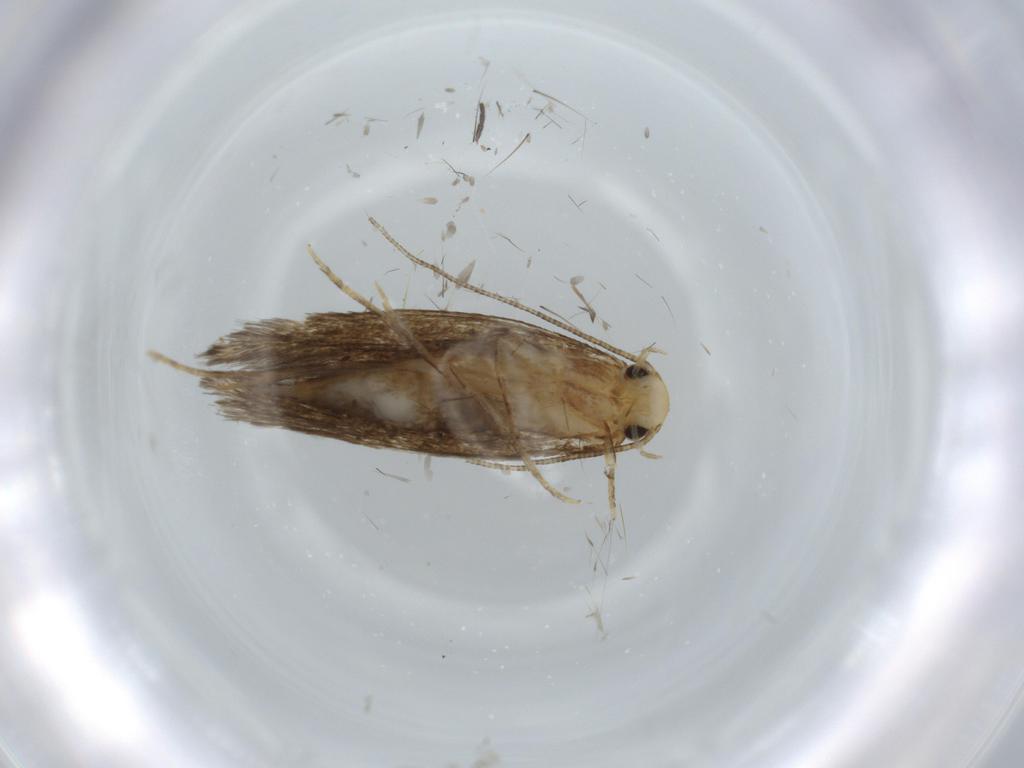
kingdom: Animalia
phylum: Arthropoda
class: Insecta
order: Lepidoptera
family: Tineidae
